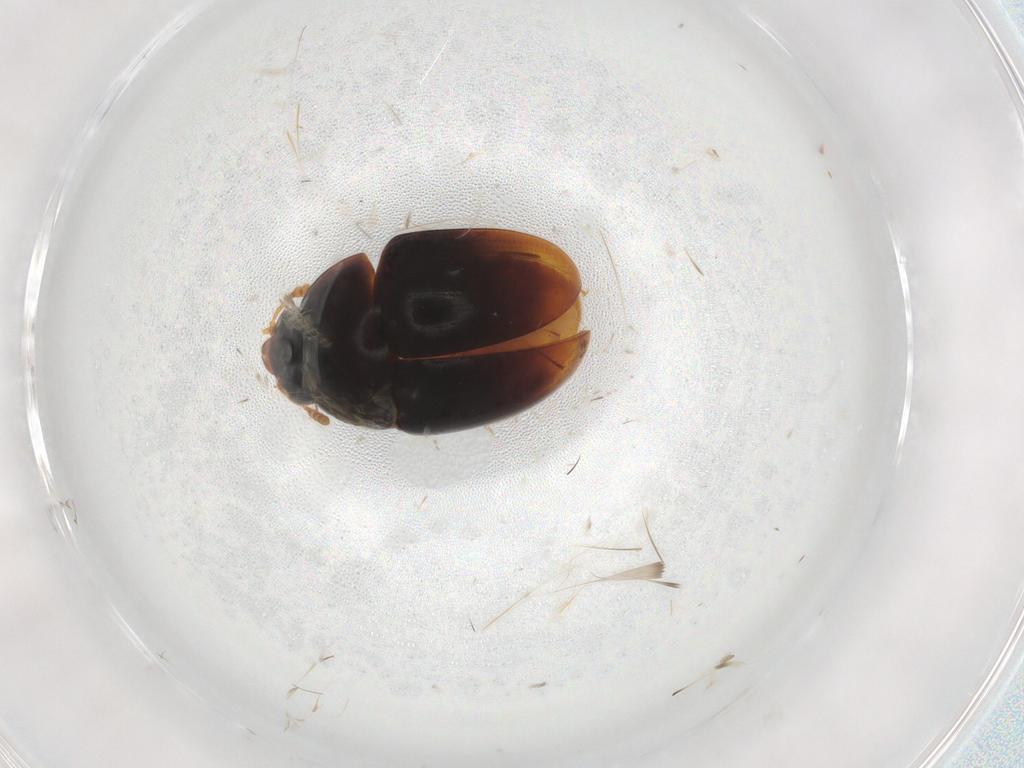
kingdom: Animalia
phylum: Arthropoda
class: Insecta
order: Coleoptera
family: Phalacridae
